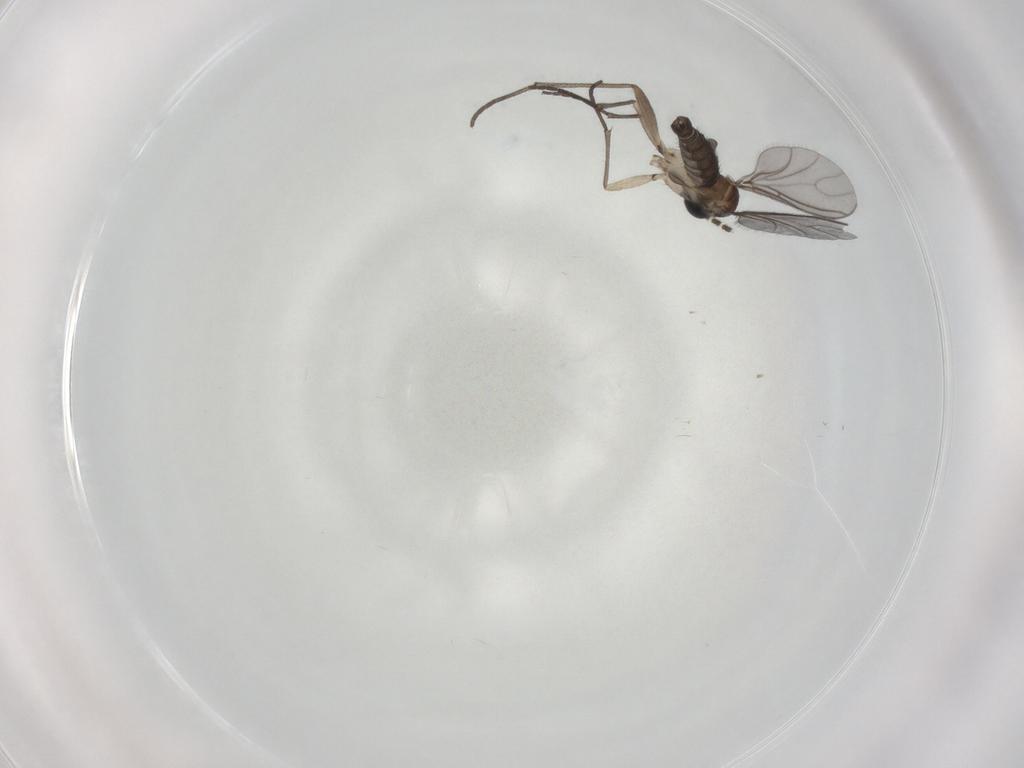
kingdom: Animalia
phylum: Arthropoda
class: Insecta
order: Diptera
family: Sciaridae
